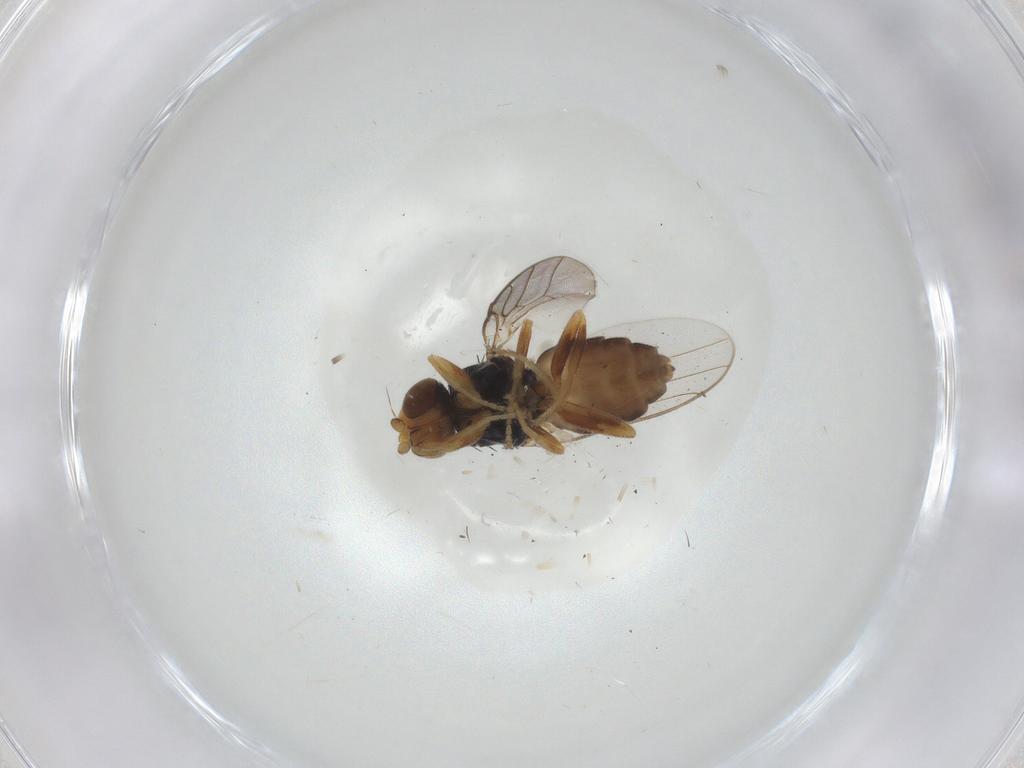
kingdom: Animalia
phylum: Arthropoda
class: Insecta
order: Diptera
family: Chloropidae
